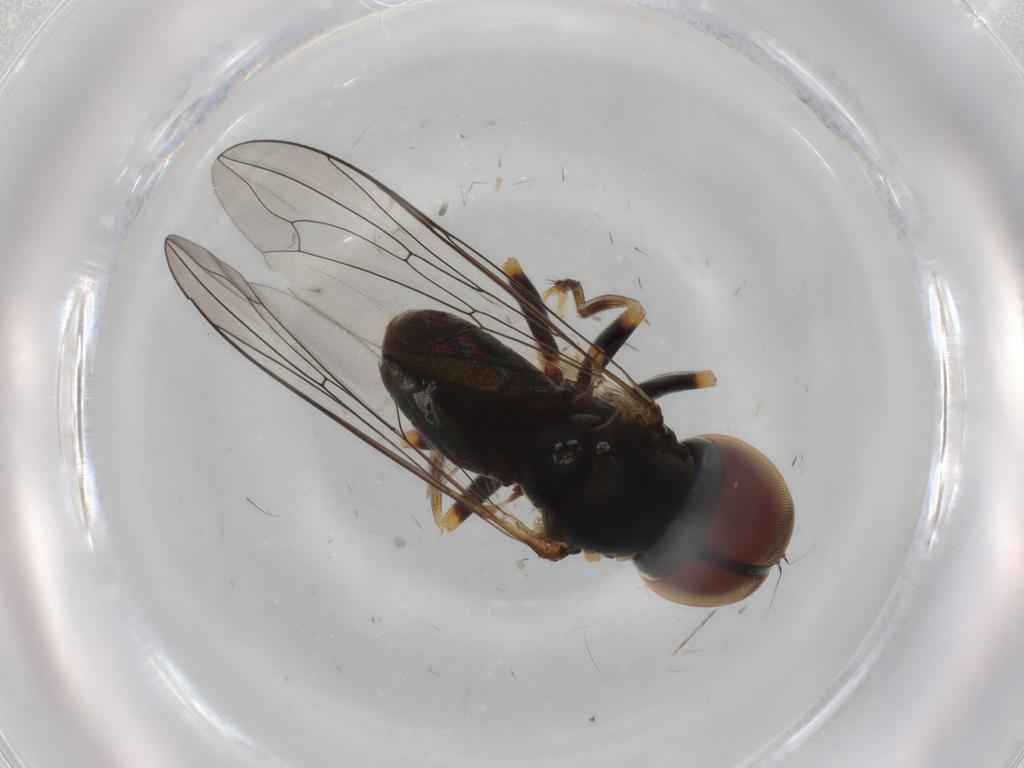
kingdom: Animalia
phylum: Arthropoda
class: Insecta
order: Diptera
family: Pipunculidae
